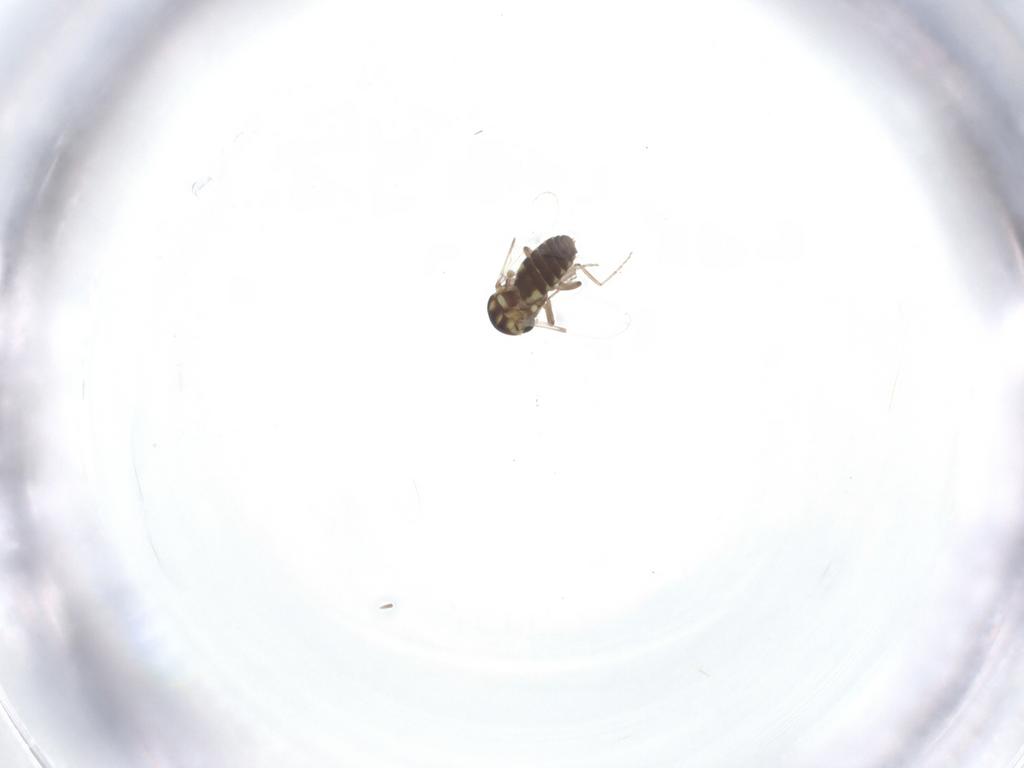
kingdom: Animalia
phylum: Arthropoda
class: Insecta
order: Diptera
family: Ceratopogonidae
